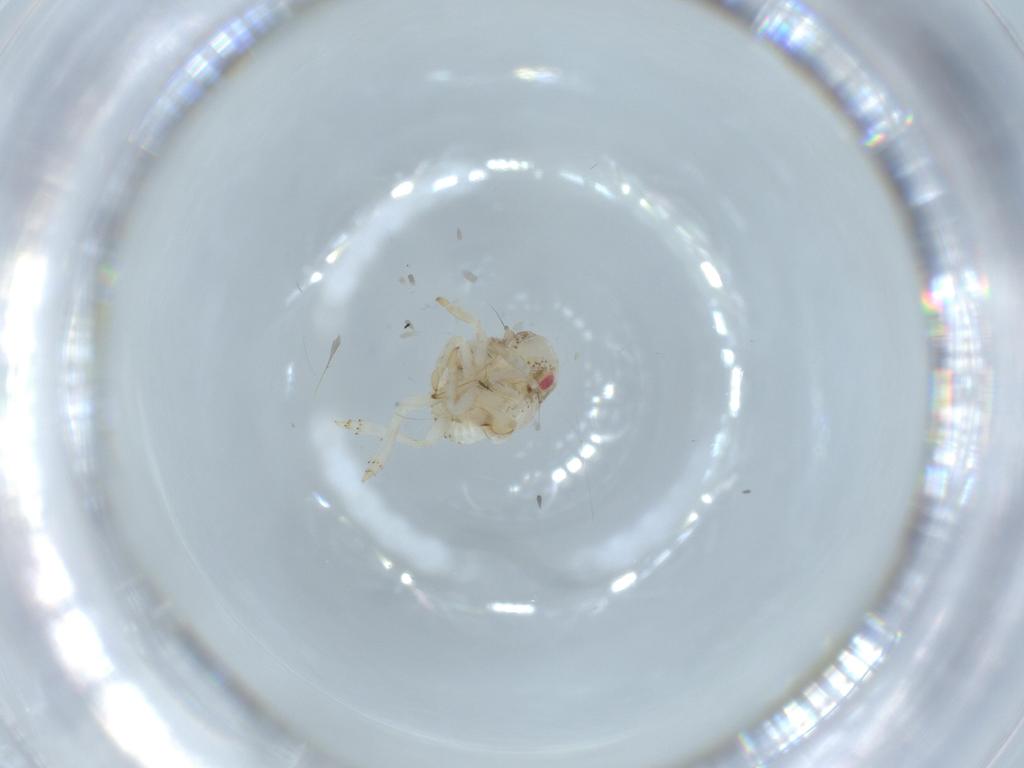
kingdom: Animalia
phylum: Arthropoda
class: Insecta
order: Hemiptera
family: Acanaloniidae
